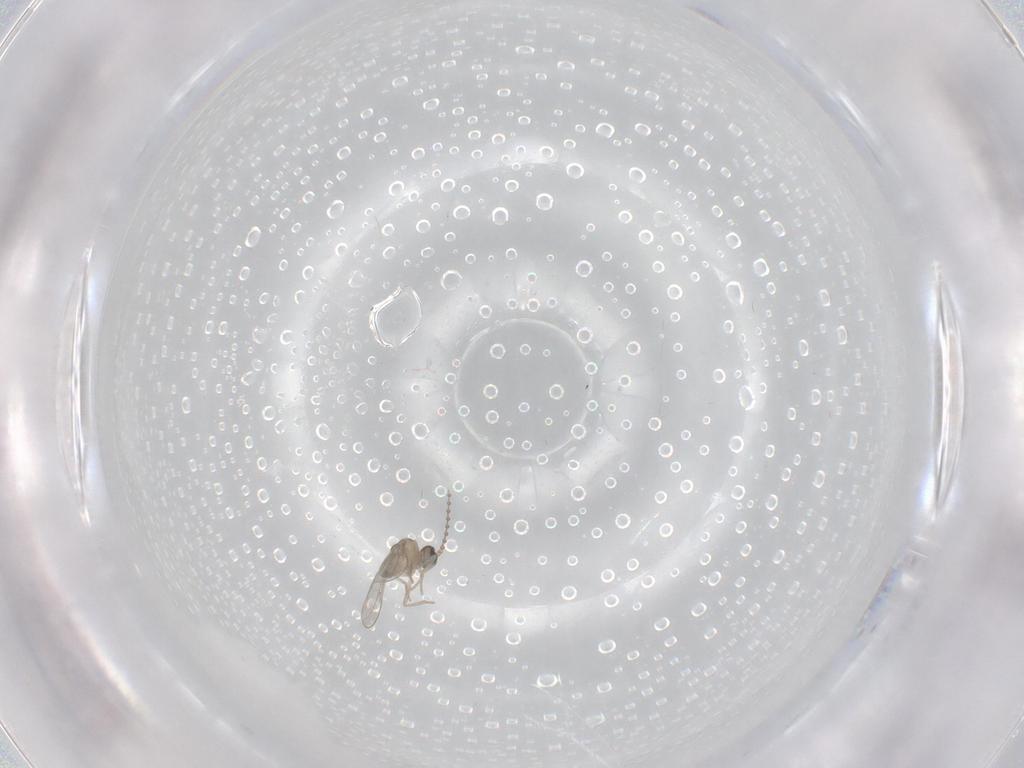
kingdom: Animalia
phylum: Arthropoda
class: Insecta
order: Diptera
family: Cecidomyiidae
